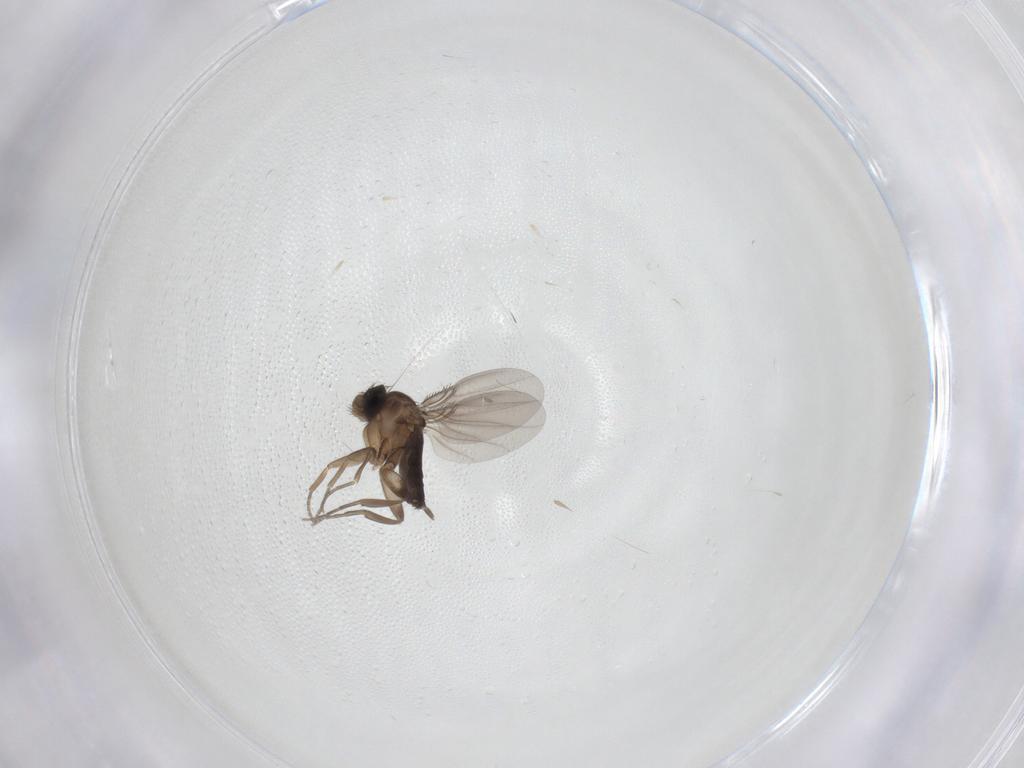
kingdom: Animalia
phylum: Arthropoda
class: Insecta
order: Diptera
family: Phoridae
